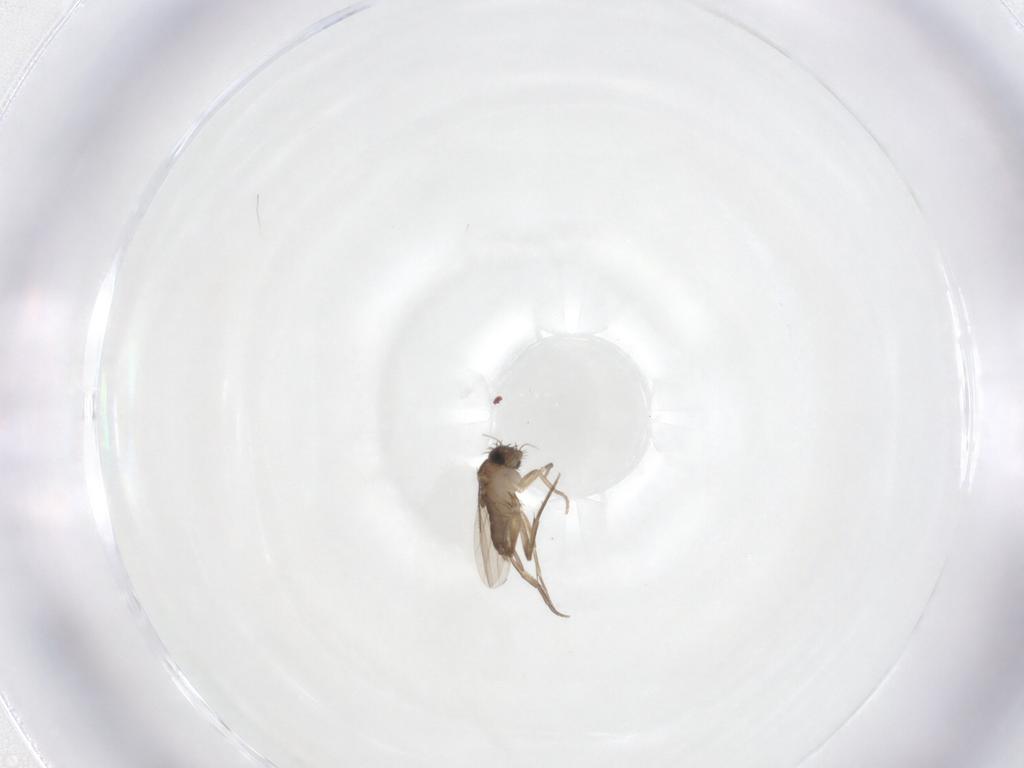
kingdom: Animalia
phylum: Arthropoda
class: Insecta
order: Diptera
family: Phoridae
